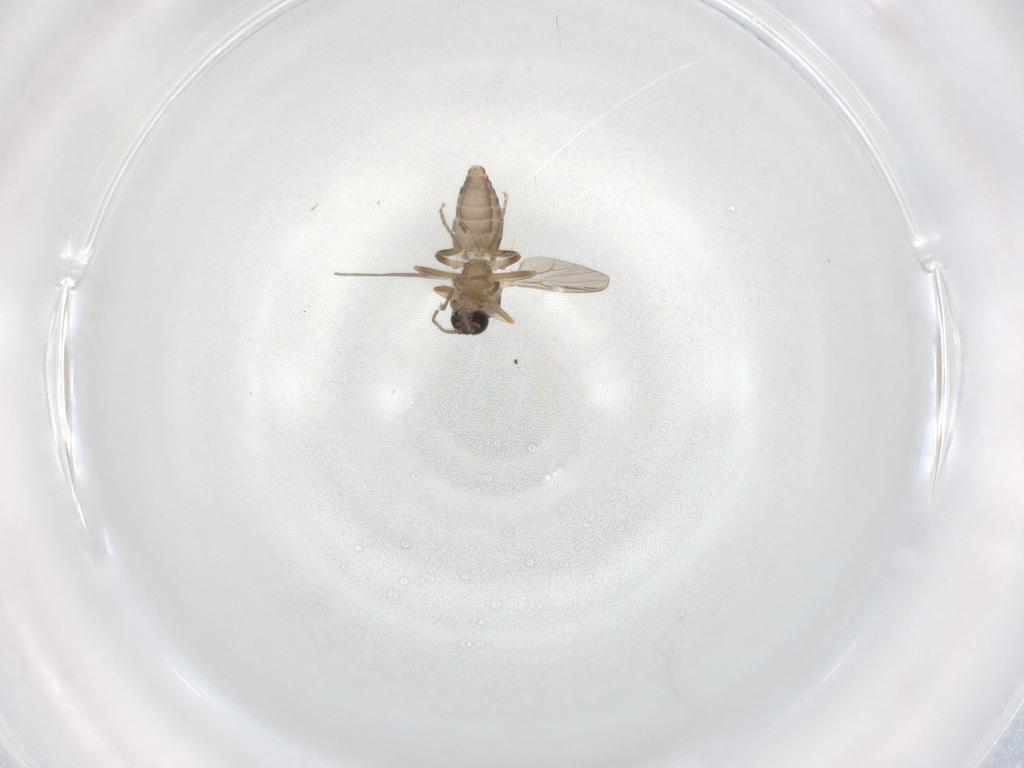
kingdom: Animalia
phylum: Arthropoda
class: Insecta
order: Diptera
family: Ceratopogonidae
